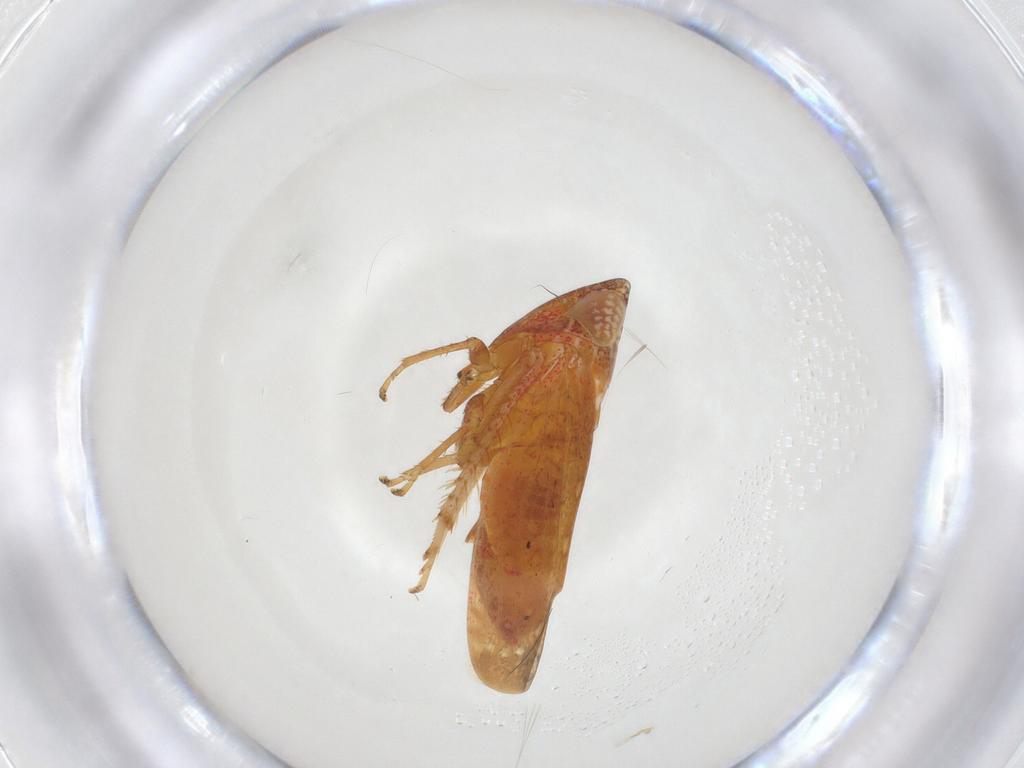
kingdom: Animalia
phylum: Arthropoda
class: Insecta
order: Hemiptera
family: Cicadellidae
